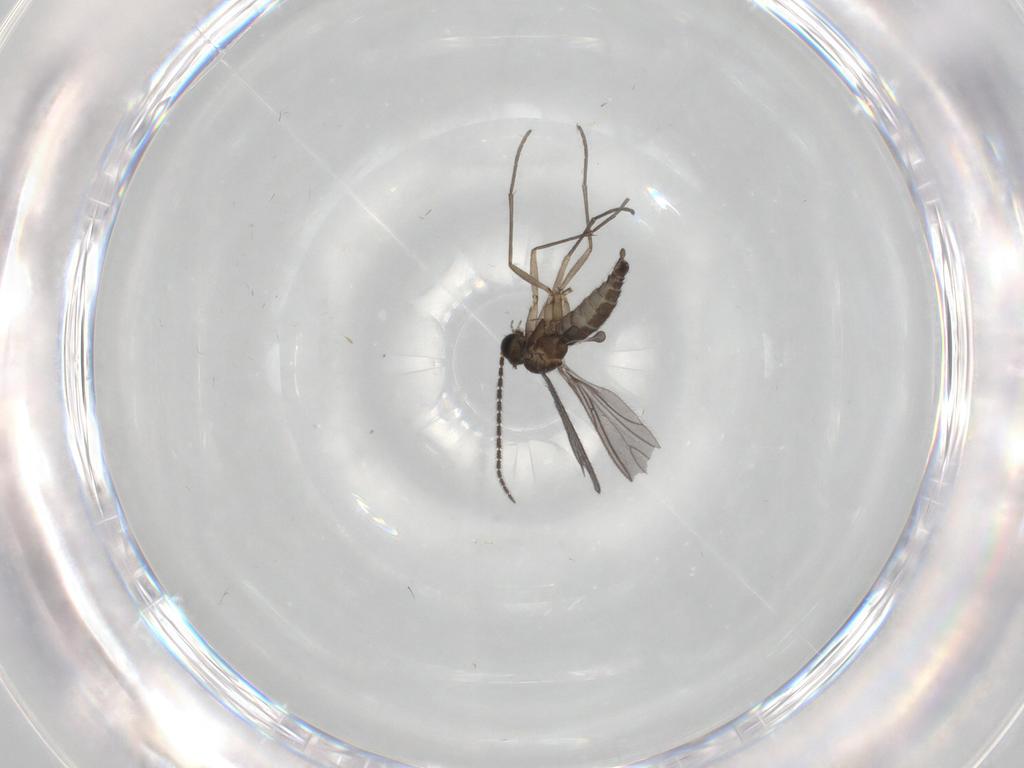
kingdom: Animalia
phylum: Arthropoda
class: Insecta
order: Diptera
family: Sciaridae
